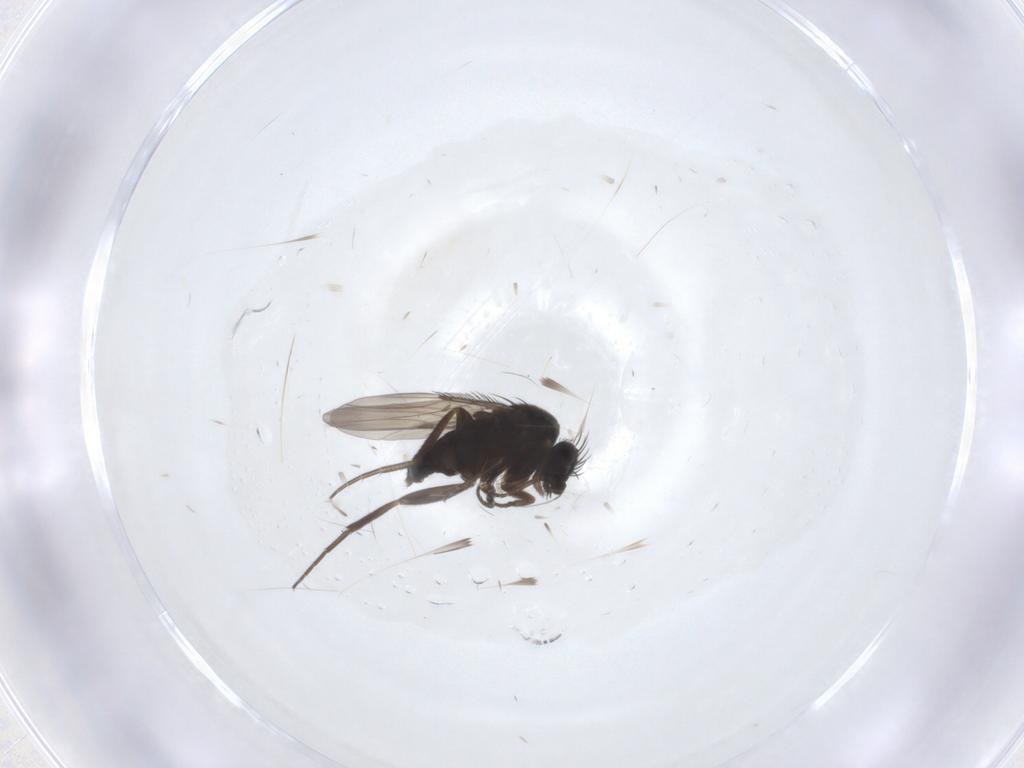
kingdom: Animalia
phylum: Arthropoda
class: Insecta
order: Diptera
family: Phoridae
